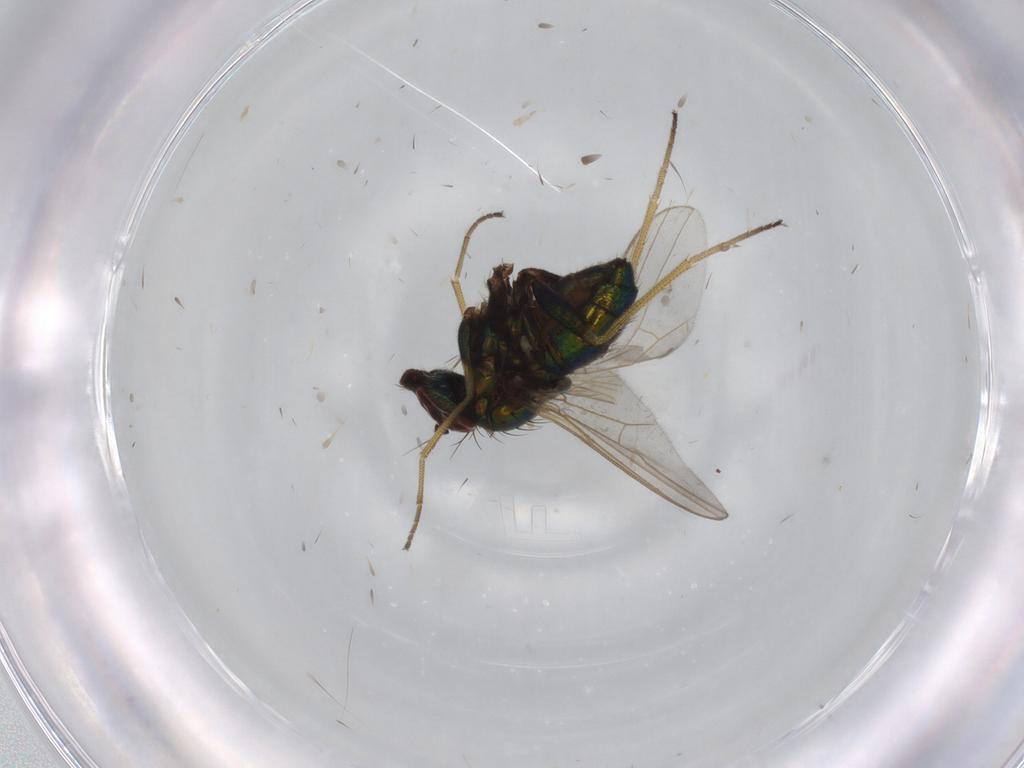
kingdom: Animalia
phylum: Arthropoda
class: Insecta
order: Diptera
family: Dolichopodidae
